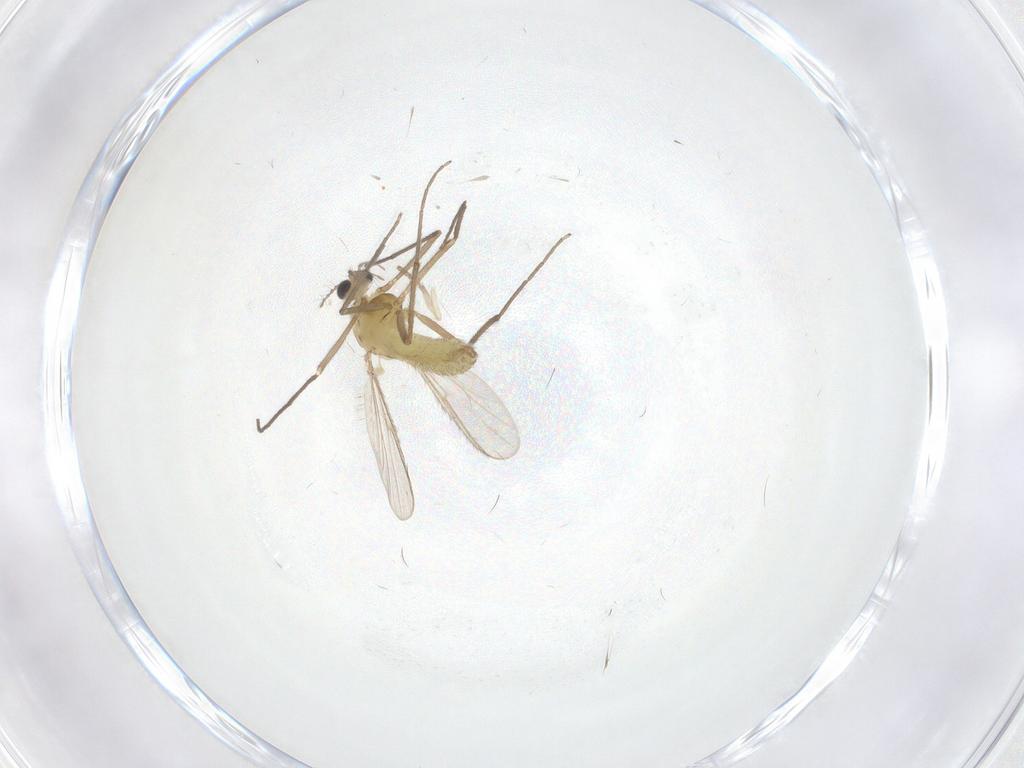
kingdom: Animalia
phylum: Arthropoda
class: Insecta
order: Diptera
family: Chironomidae
